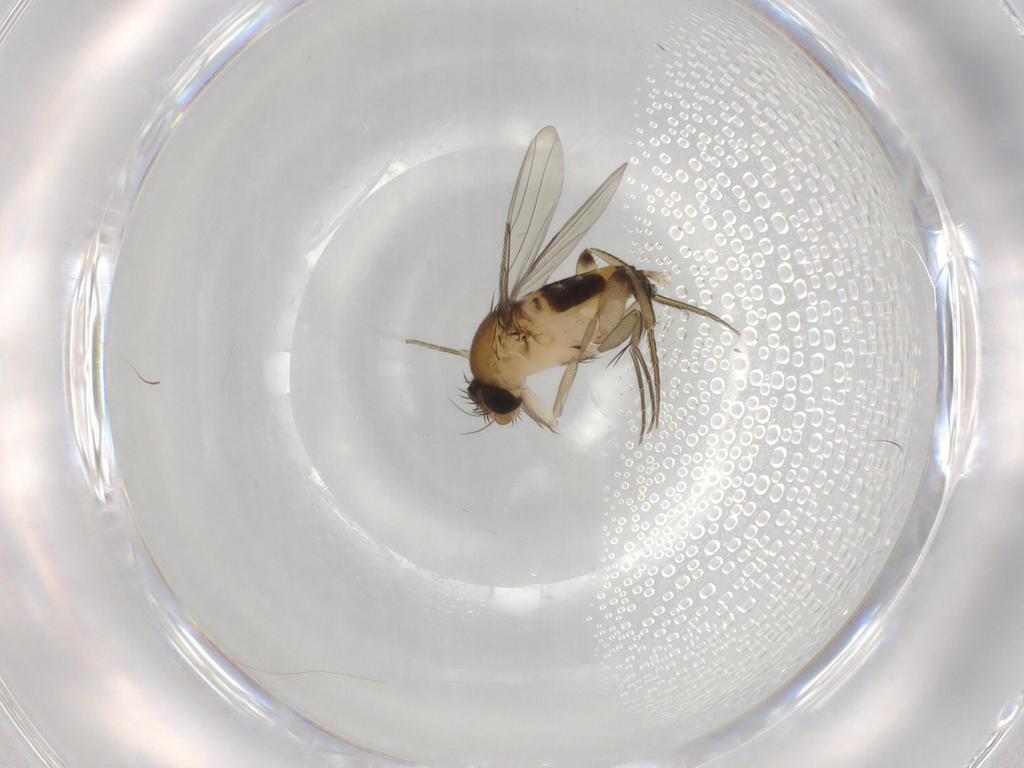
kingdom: Animalia
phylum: Arthropoda
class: Insecta
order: Diptera
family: Phoridae
